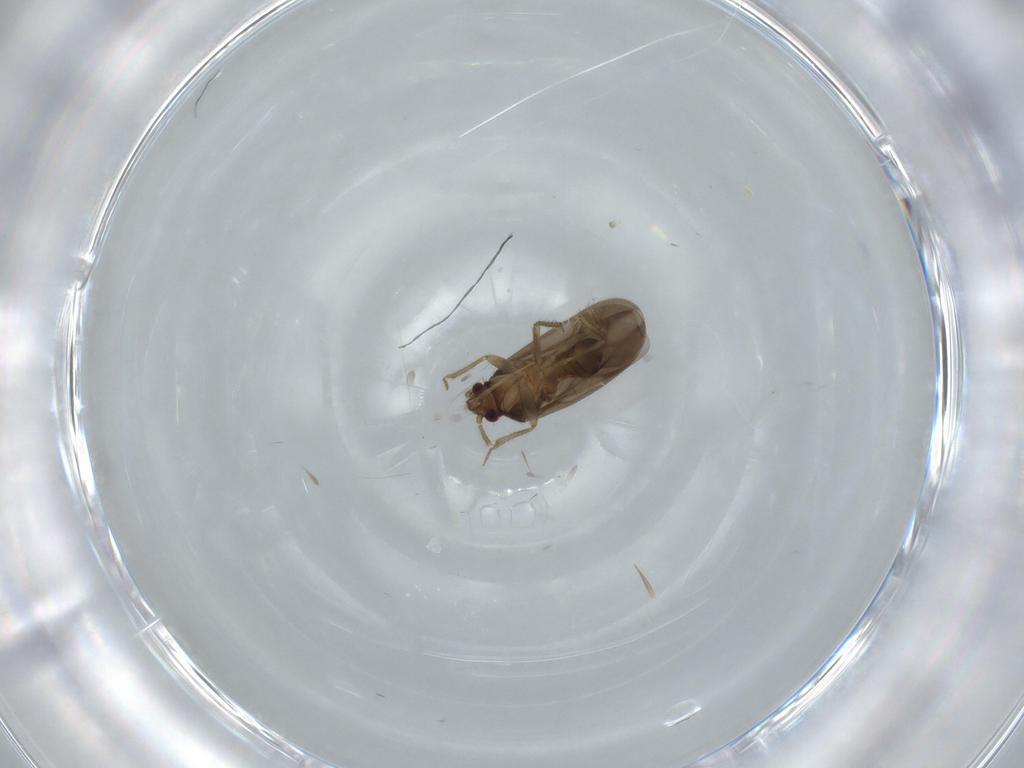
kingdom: Animalia
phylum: Arthropoda
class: Insecta
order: Hemiptera
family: Ceratocombidae
